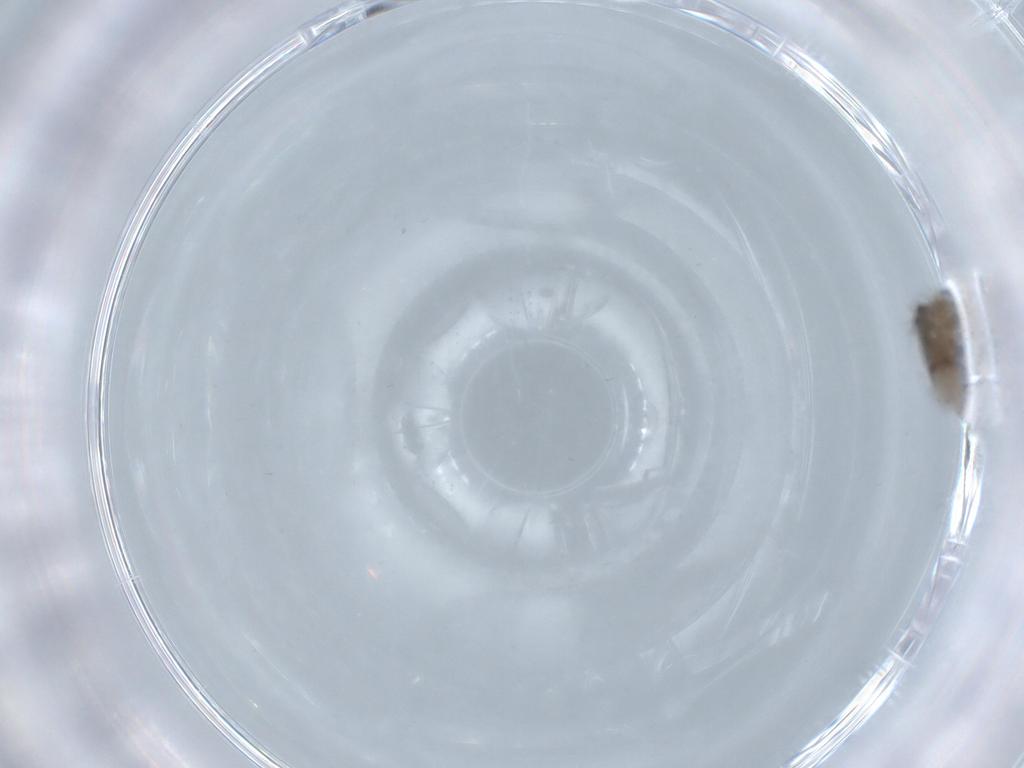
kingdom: Animalia
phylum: Arthropoda
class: Insecta
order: Diptera
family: Psychodidae
